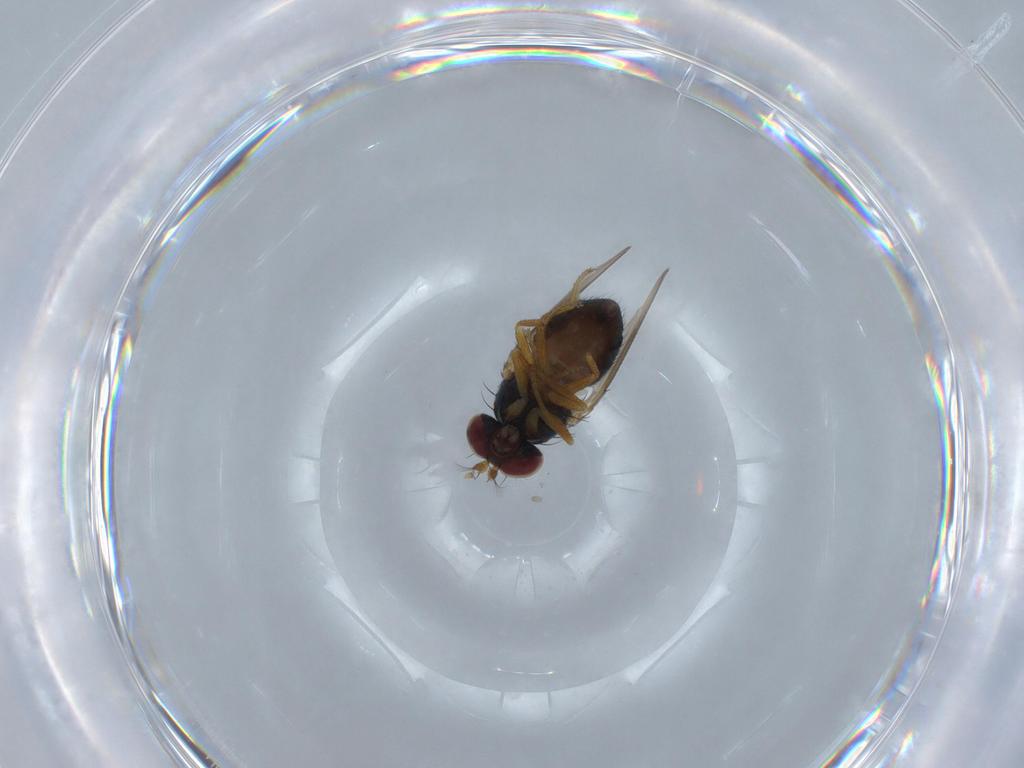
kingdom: Animalia
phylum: Arthropoda
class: Insecta
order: Diptera
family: Ephydridae
